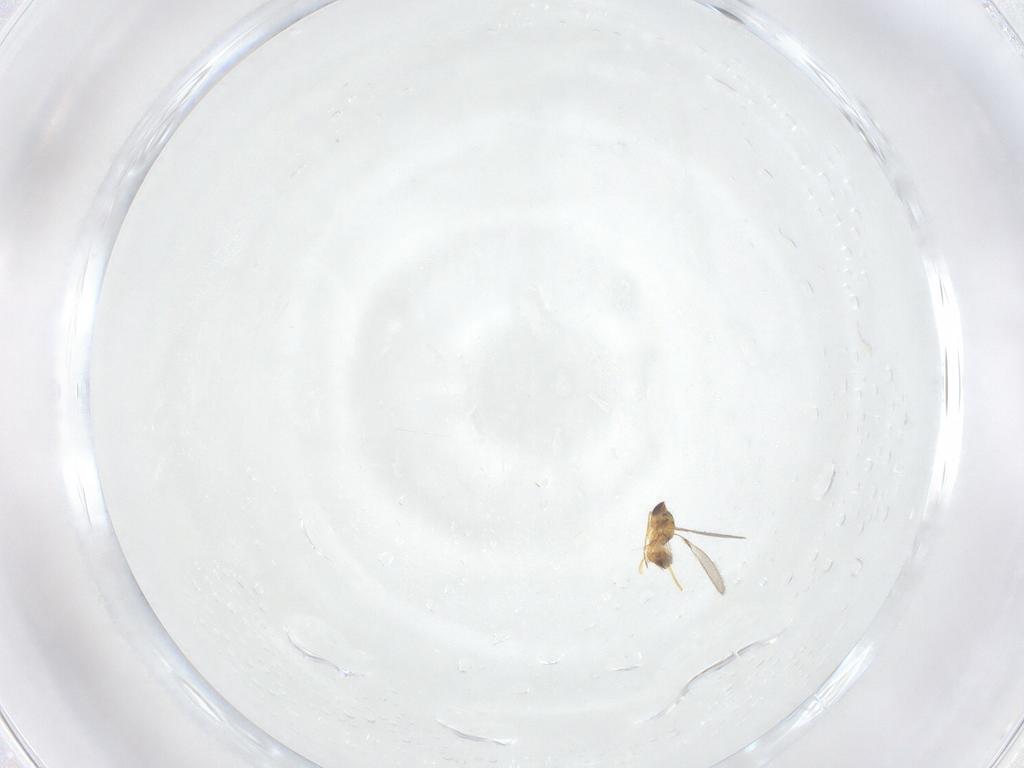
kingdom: Animalia
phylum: Arthropoda
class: Insecta
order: Hymenoptera
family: Mymaridae
